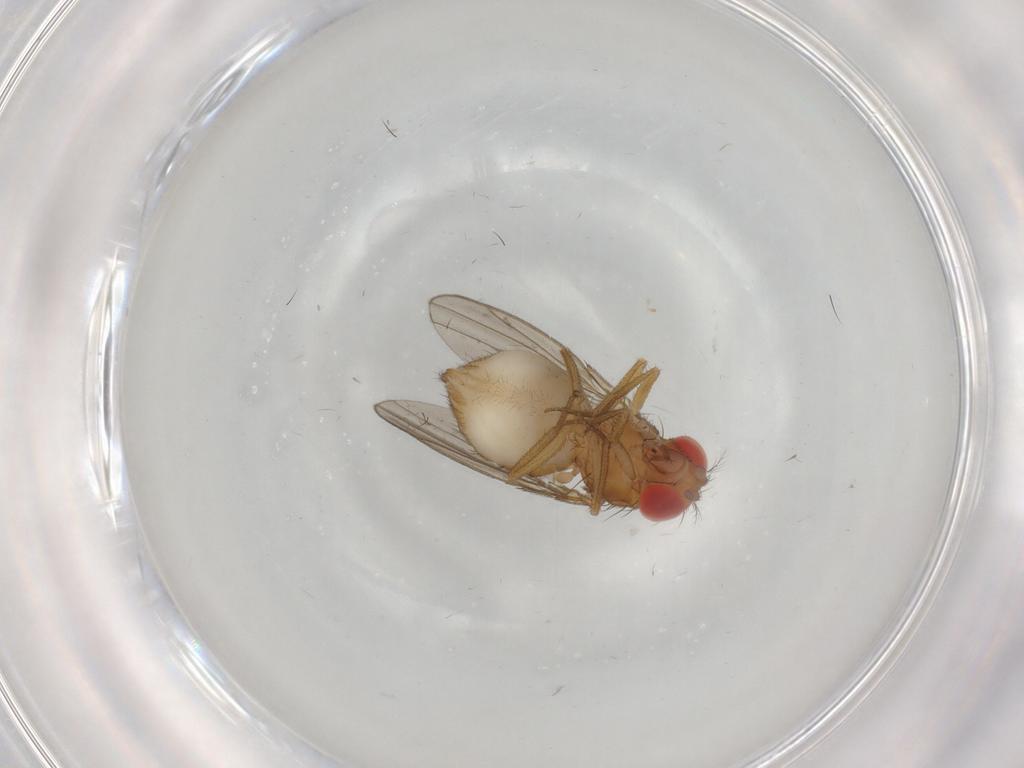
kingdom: Animalia
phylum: Arthropoda
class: Insecta
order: Diptera
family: Drosophilidae
